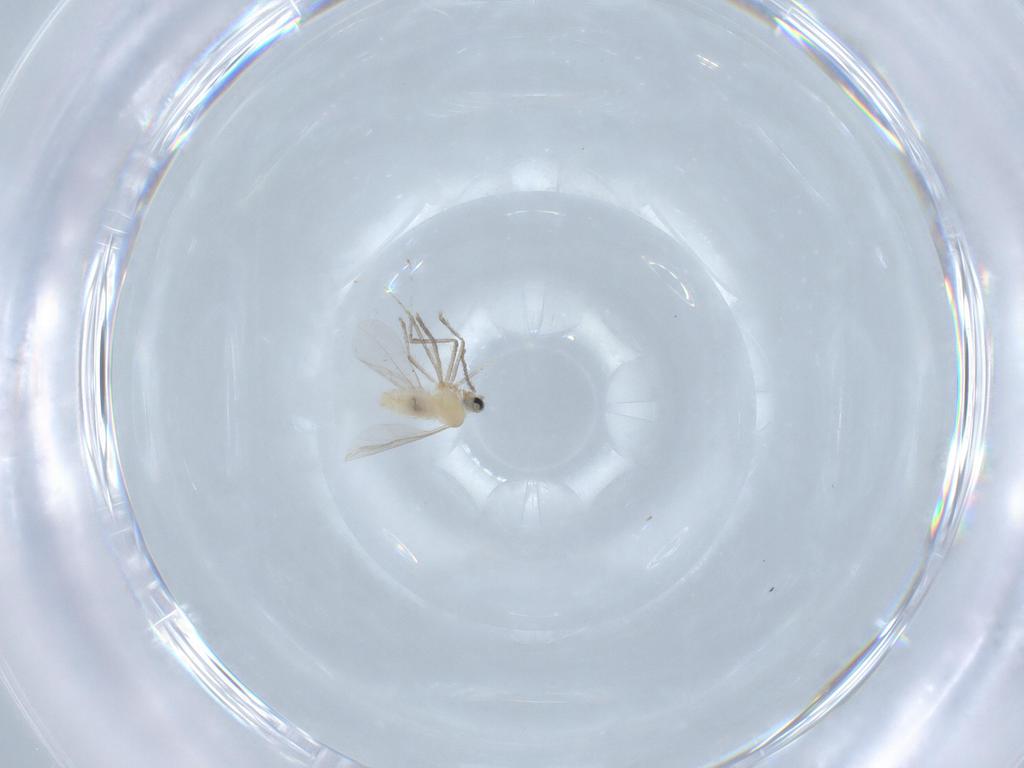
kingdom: Animalia
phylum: Arthropoda
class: Insecta
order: Diptera
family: Cecidomyiidae
